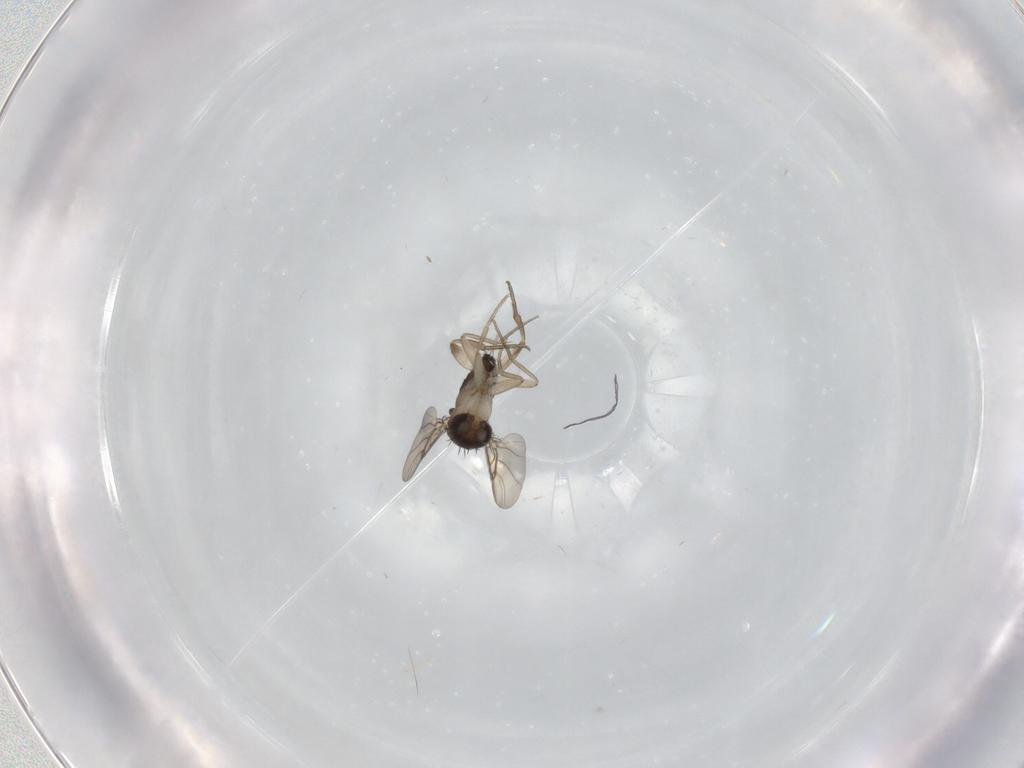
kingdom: Animalia
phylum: Arthropoda
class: Insecta
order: Diptera
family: Phoridae
